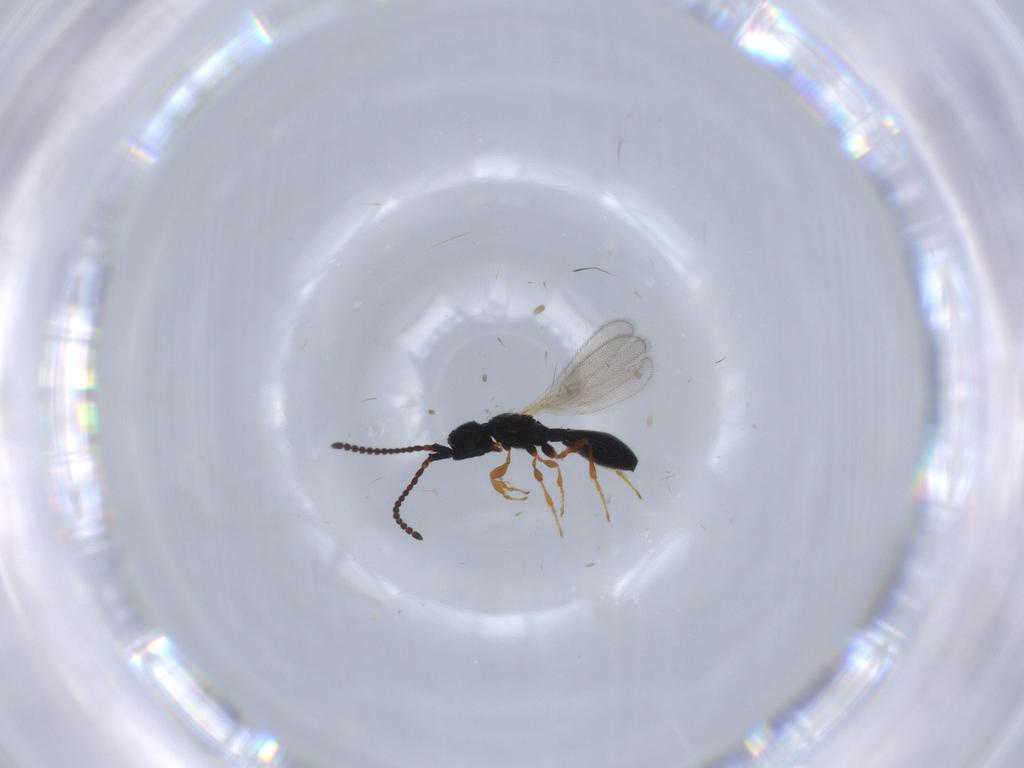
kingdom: Animalia
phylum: Arthropoda
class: Insecta
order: Hymenoptera
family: Diapriidae
